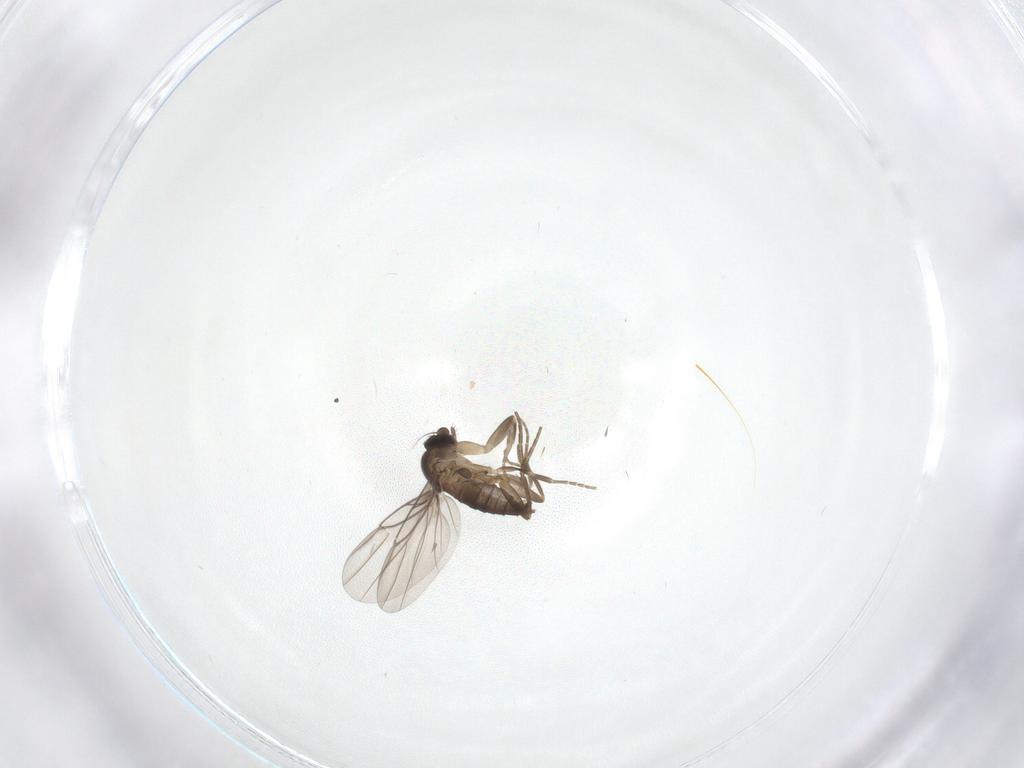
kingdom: Animalia
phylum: Arthropoda
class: Insecta
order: Diptera
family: Phoridae
